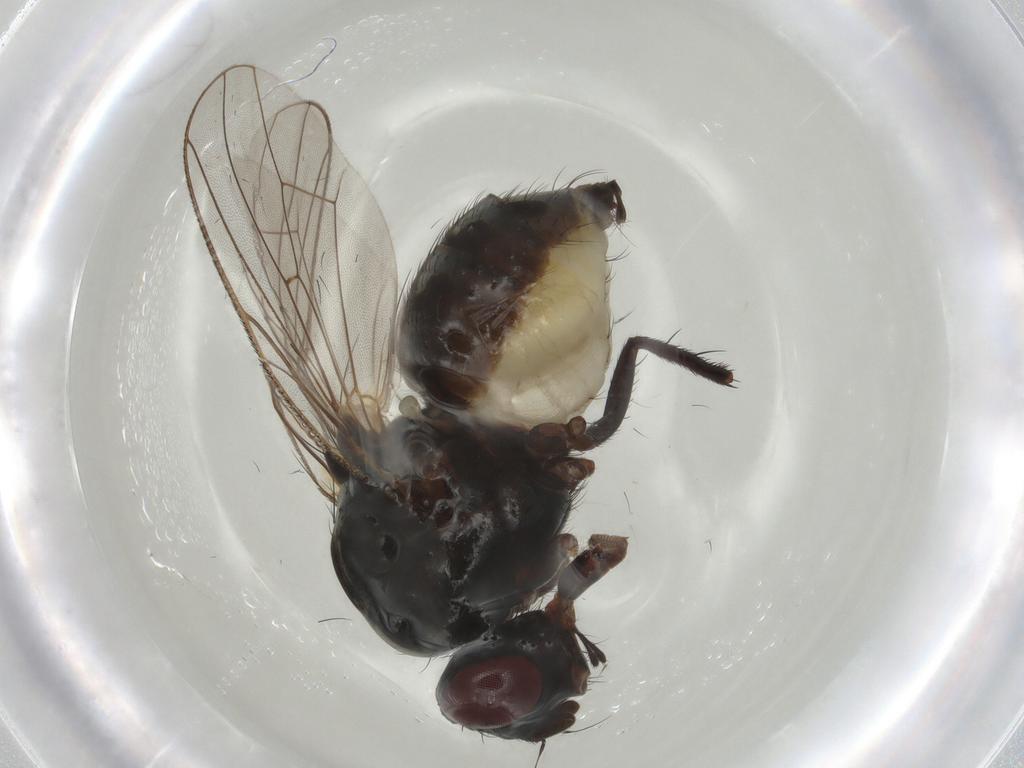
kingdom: Animalia
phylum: Arthropoda
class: Insecta
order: Diptera
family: Anthomyiidae
